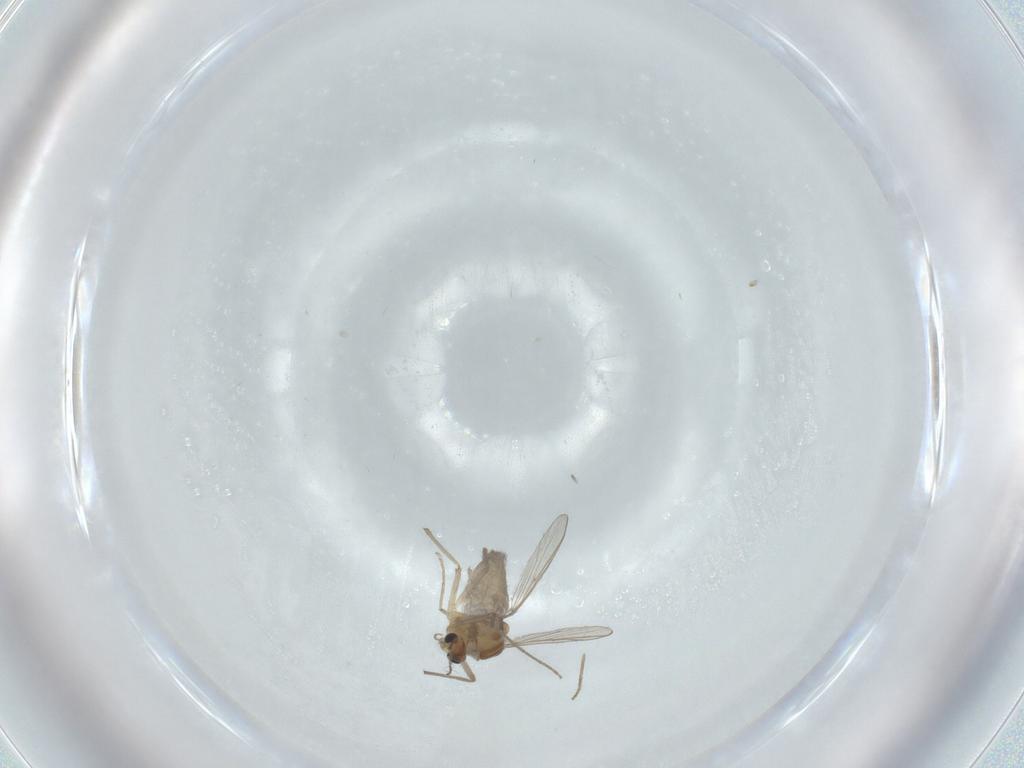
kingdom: Animalia
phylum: Arthropoda
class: Insecta
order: Diptera
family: Chironomidae
